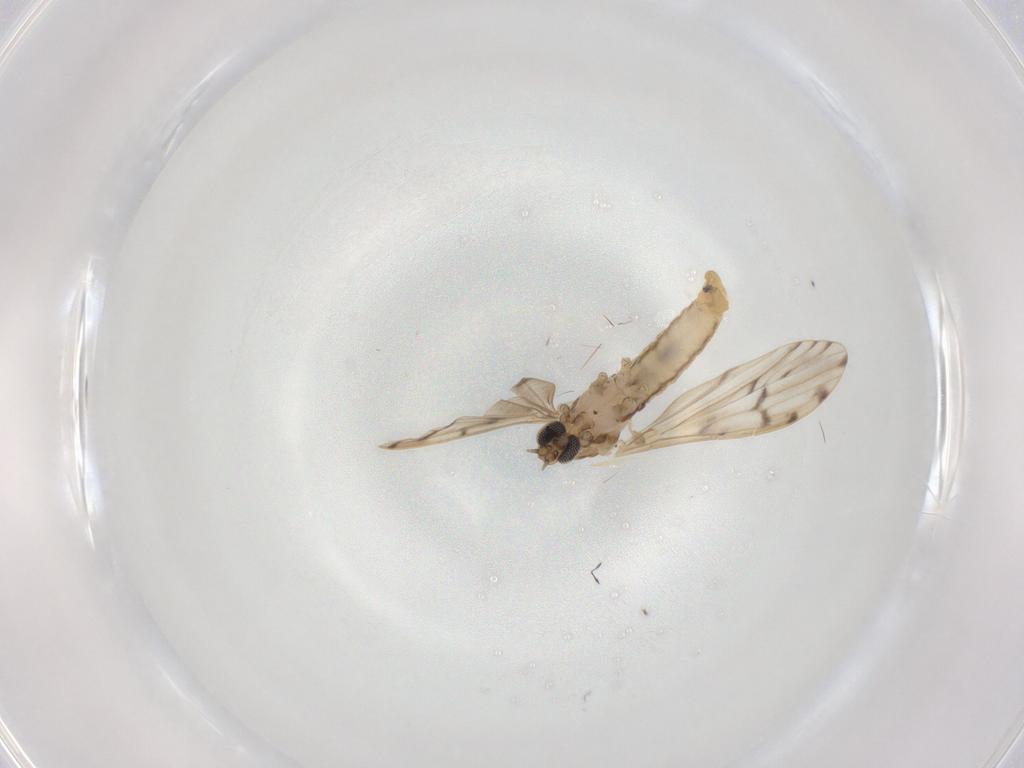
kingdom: Animalia
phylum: Arthropoda
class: Insecta
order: Diptera
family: Limoniidae
